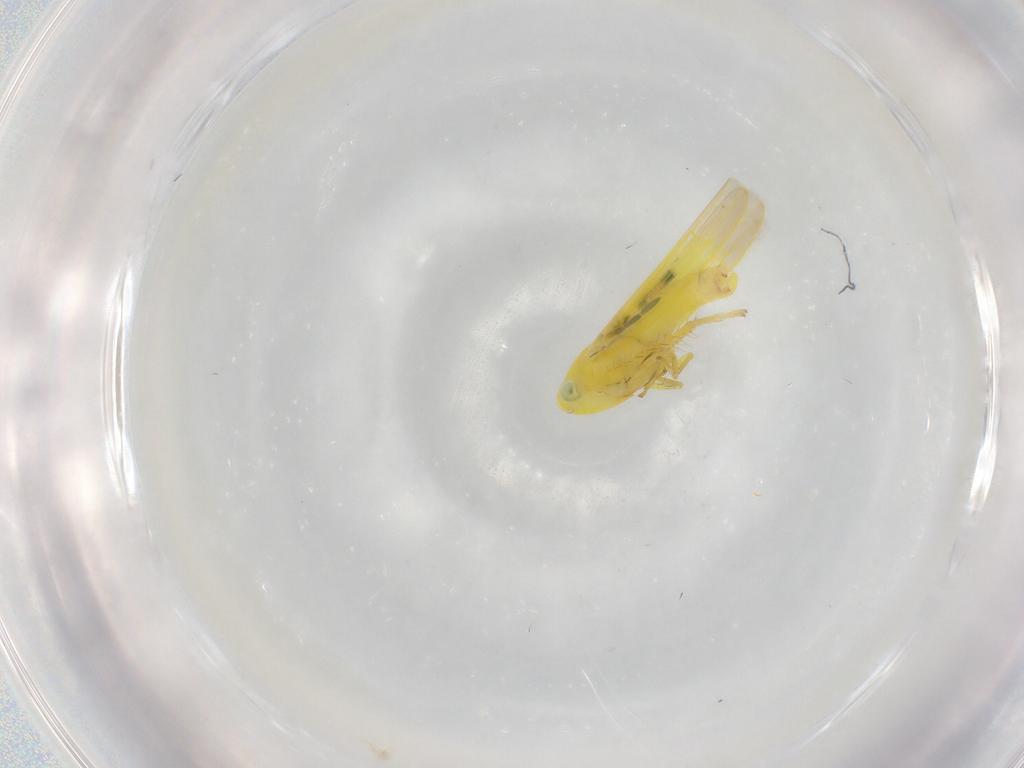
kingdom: Animalia
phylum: Arthropoda
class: Insecta
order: Hemiptera
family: Cicadellidae
